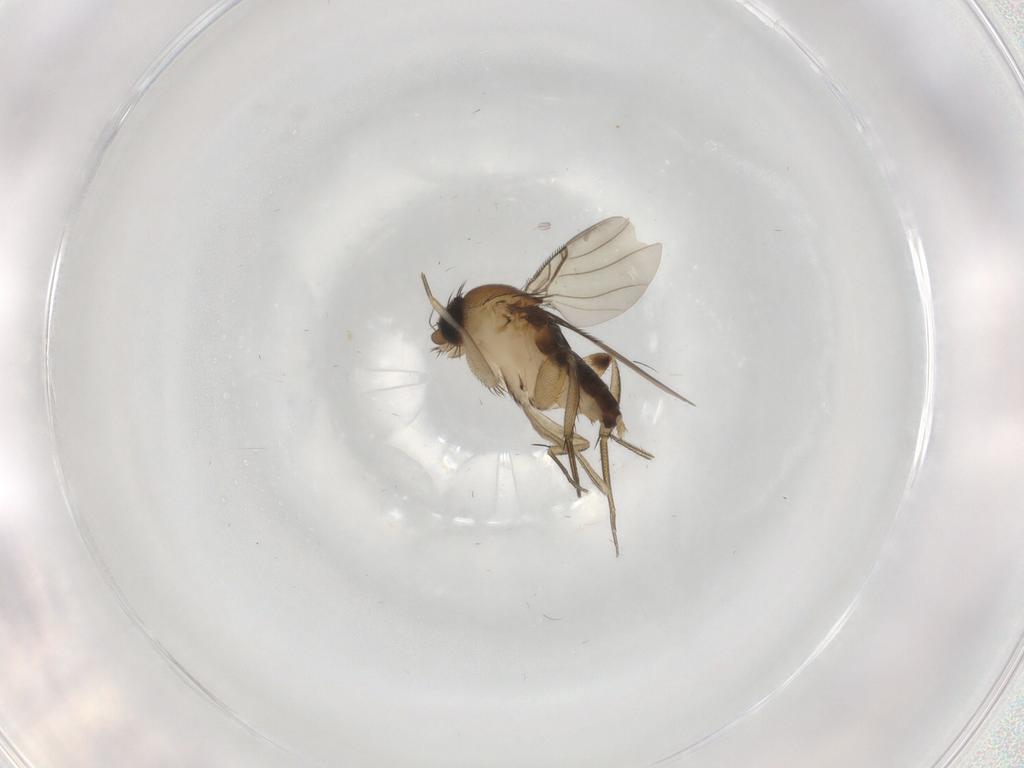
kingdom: Animalia
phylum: Arthropoda
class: Insecta
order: Diptera
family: Phoridae
